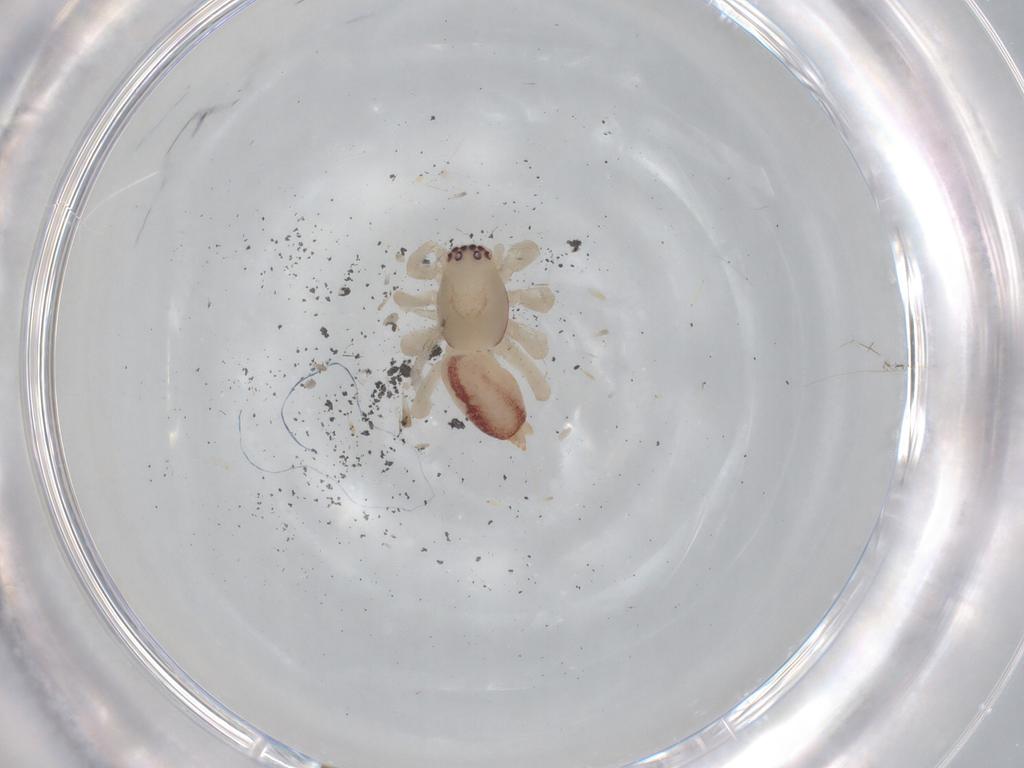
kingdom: Animalia
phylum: Arthropoda
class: Arachnida
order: Araneae
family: Clubionidae
